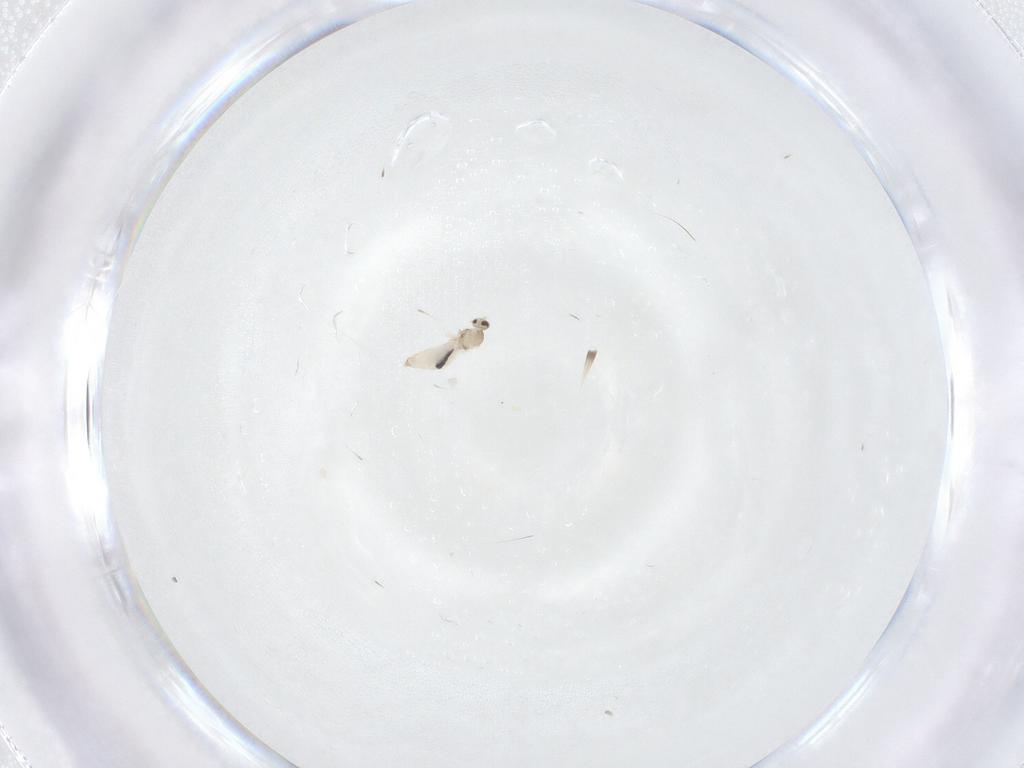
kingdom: Animalia
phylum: Arthropoda
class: Insecta
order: Diptera
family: Cecidomyiidae
